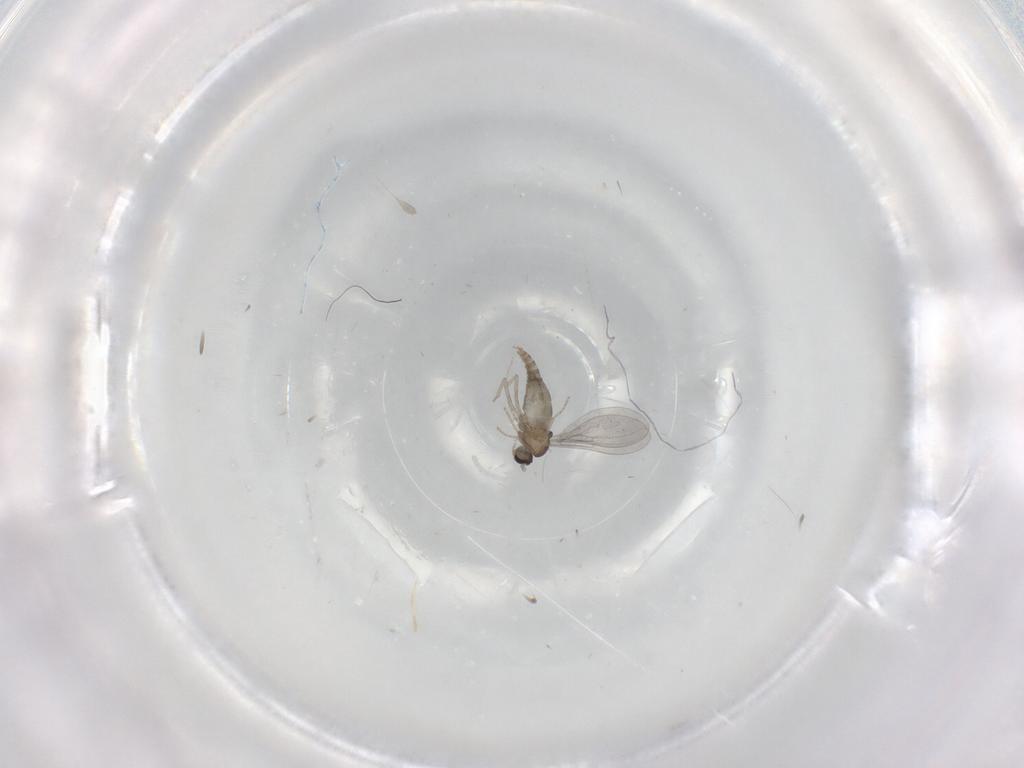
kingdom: Animalia
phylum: Arthropoda
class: Insecta
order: Diptera
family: Cecidomyiidae
